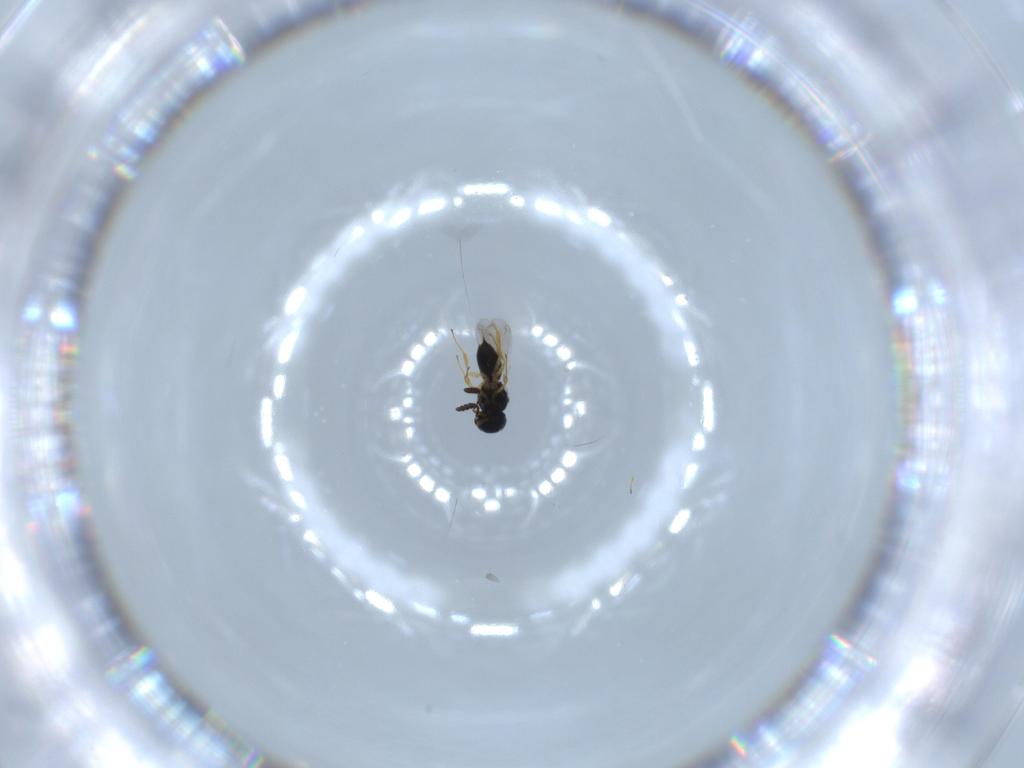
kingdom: Animalia
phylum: Arthropoda
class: Insecta
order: Hymenoptera
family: Scelionidae
